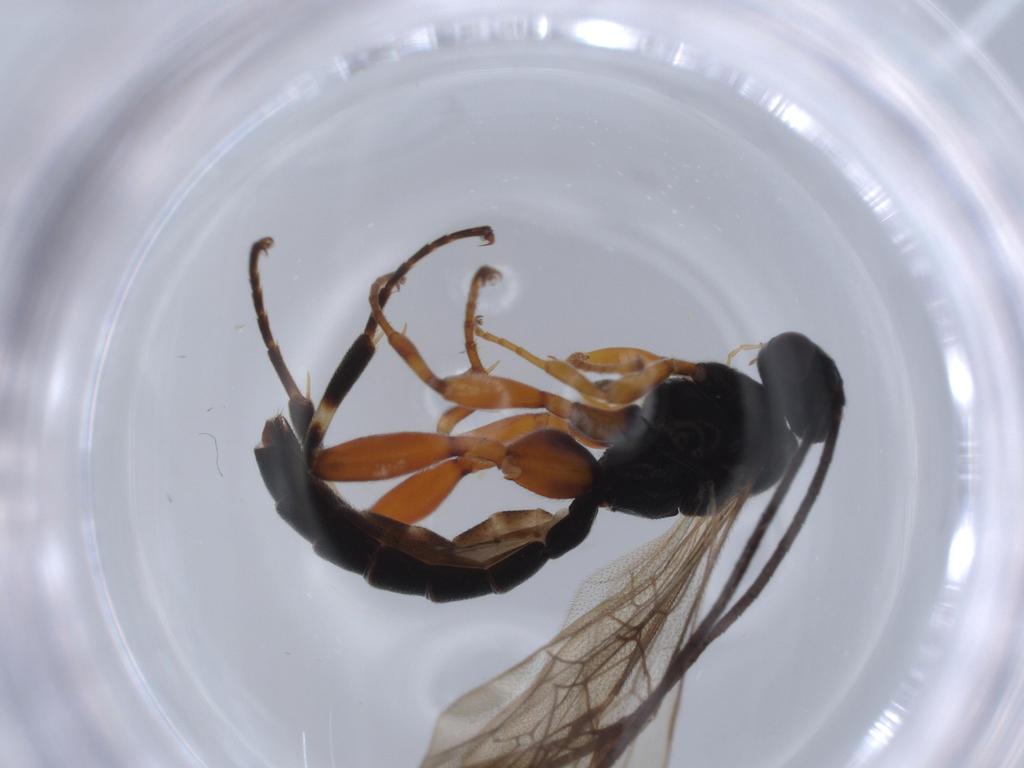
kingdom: Animalia
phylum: Arthropoda
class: Insecta
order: Hymenoptera
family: Ichneumonidae
